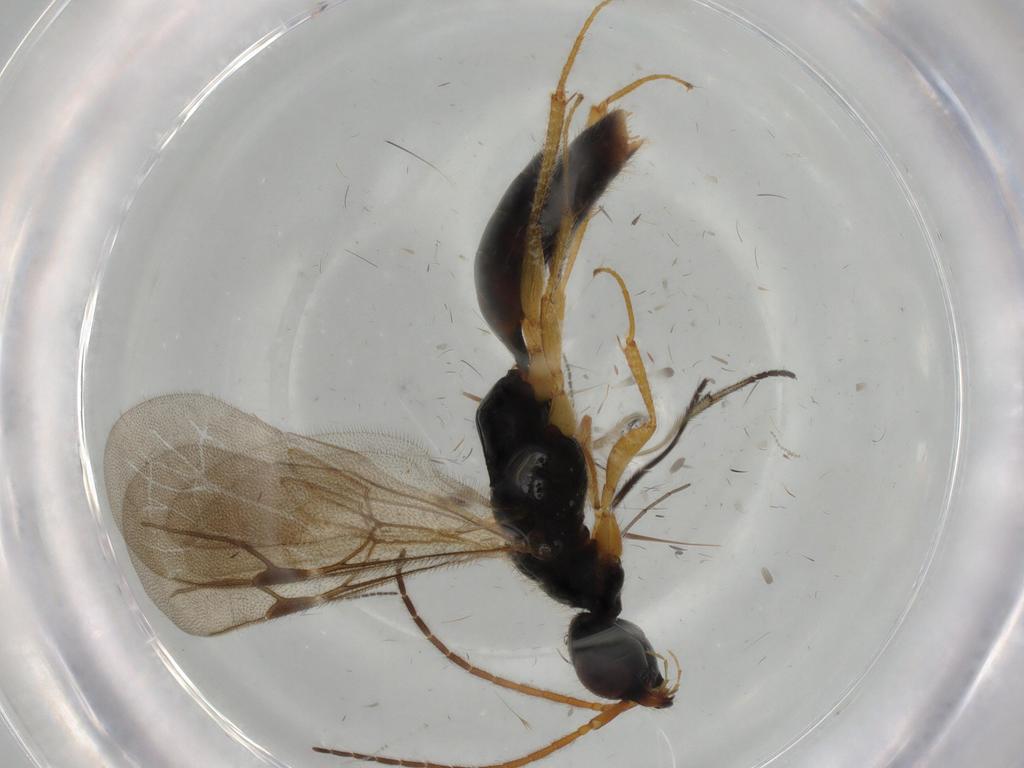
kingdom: Animalia
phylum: Arthropoda
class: Insecta
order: Hymenoptera
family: Bethylidae
